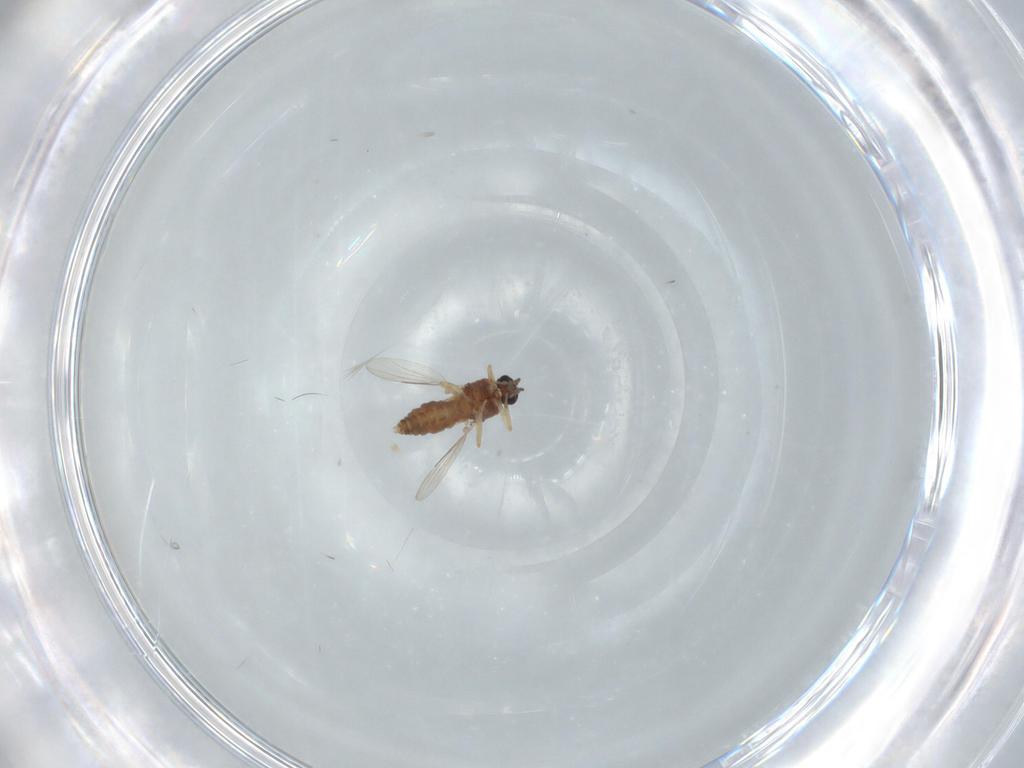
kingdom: Animalia
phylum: Arthropoda
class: Insecta
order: Diptera
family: Ceratopogonidae
